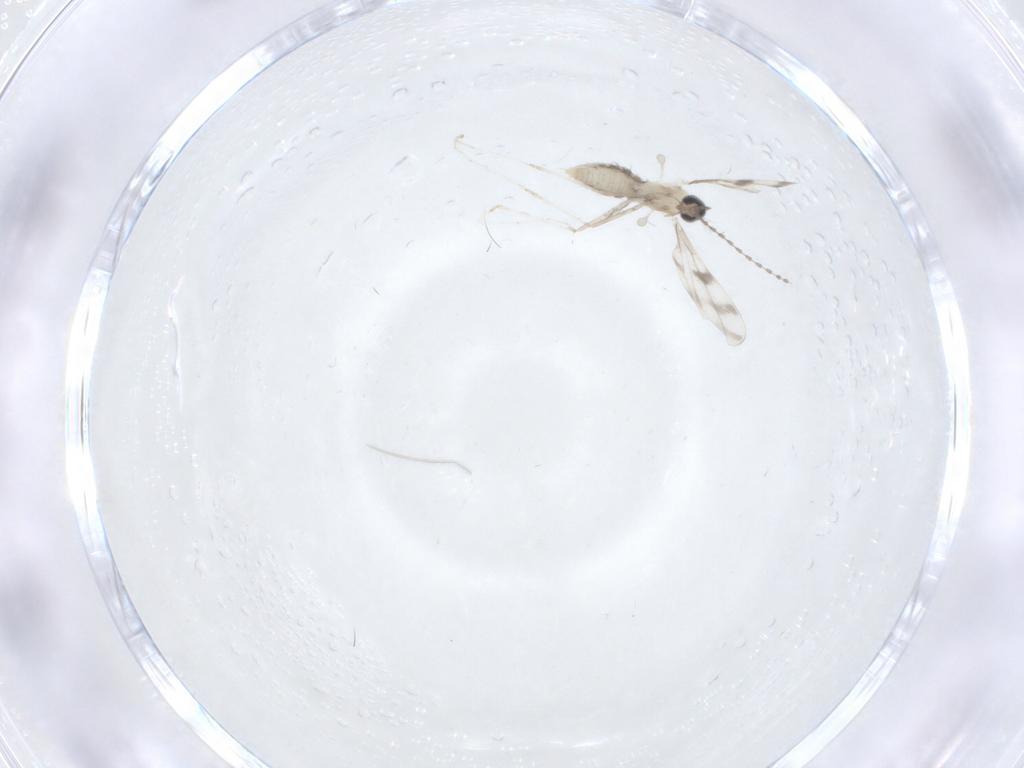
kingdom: Animalia
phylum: Arthropoda
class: Insecta
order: Diptera
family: Cecidomyiidae
